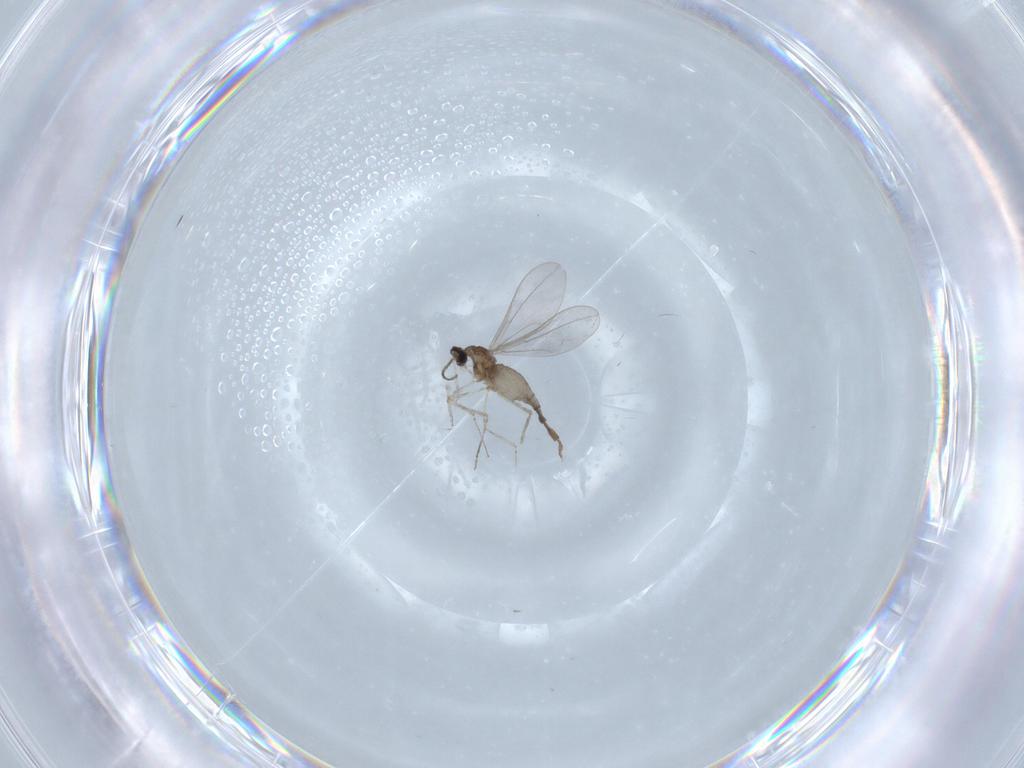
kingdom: Animalia
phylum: Arthropoda
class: Insecta
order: Diptera
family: Cecidomyiidae
